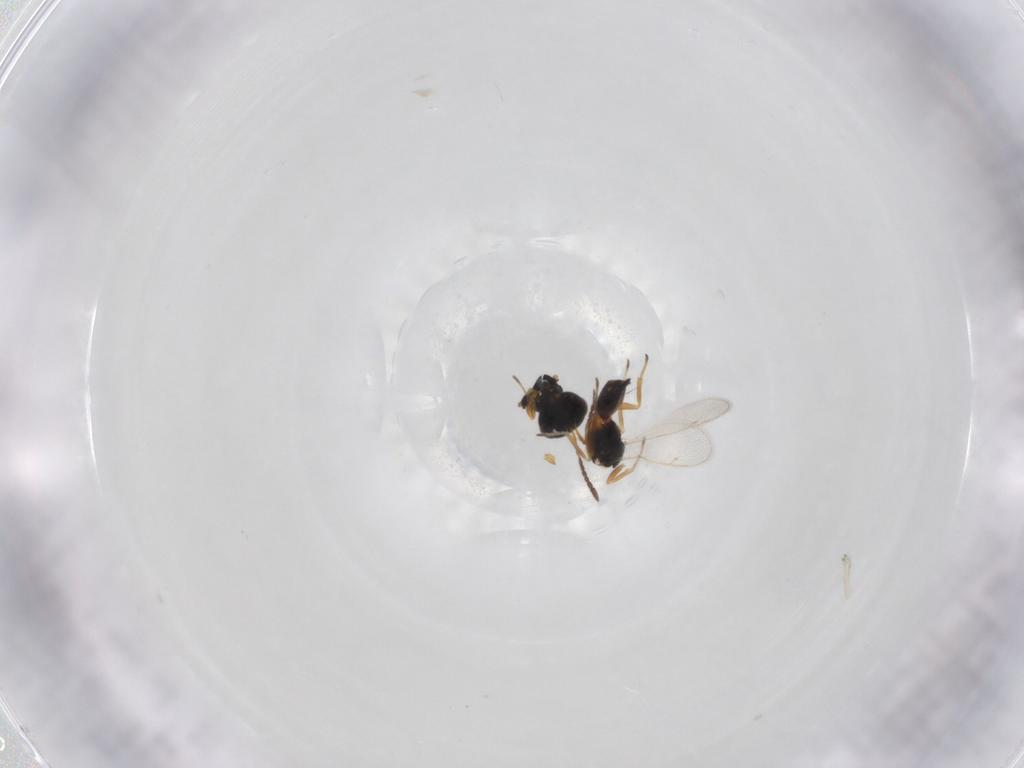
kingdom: Animalia
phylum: Arthropoda
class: Insecta
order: Hymenoptera
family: Pteromalidae
